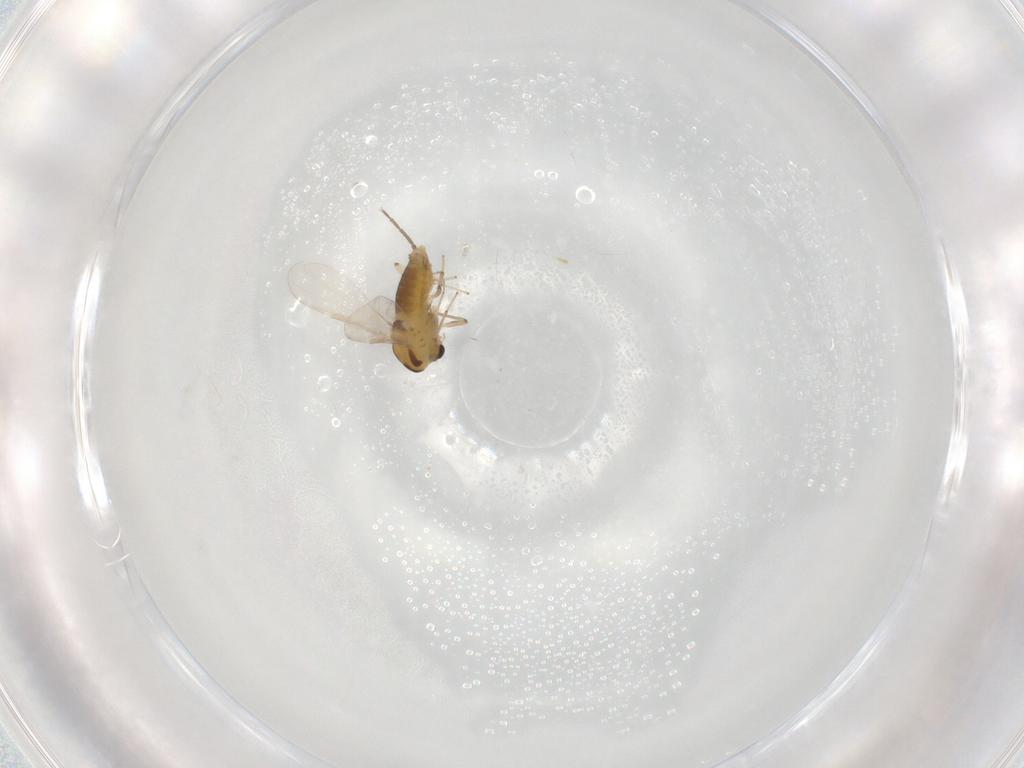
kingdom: Animalia
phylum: Arthropoda
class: Insecta
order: Diptera
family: Chironomidae
